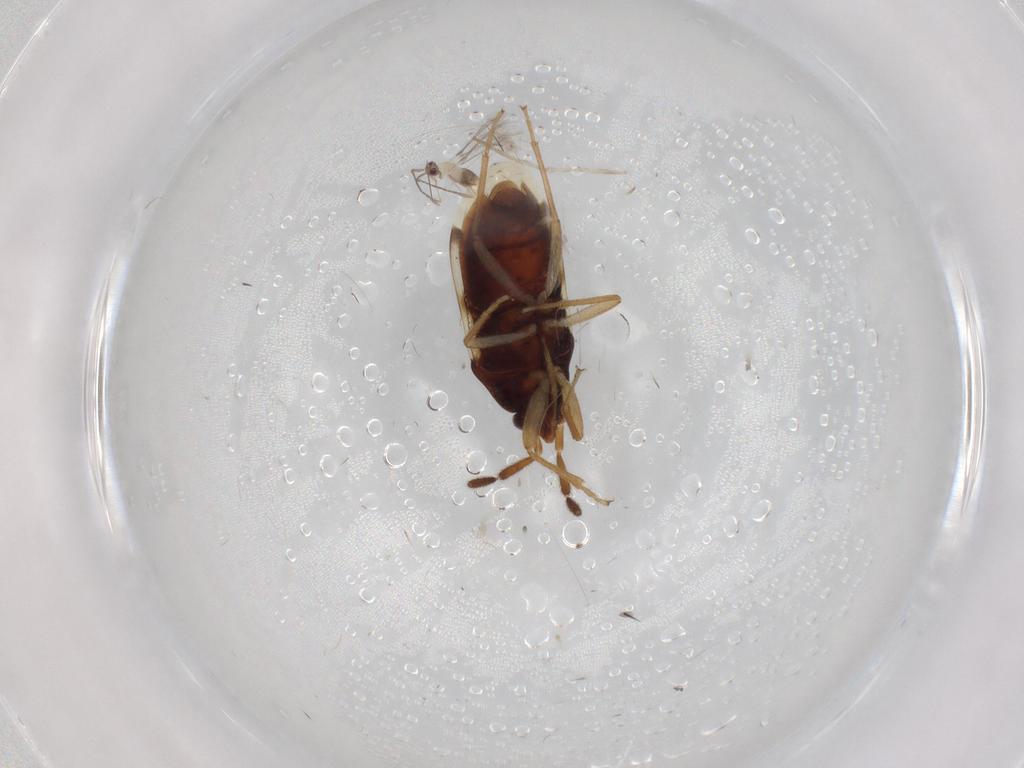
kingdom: Animalia
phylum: Arthropoda
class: Insecta
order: Hemiptera
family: Rhyparochromidae
